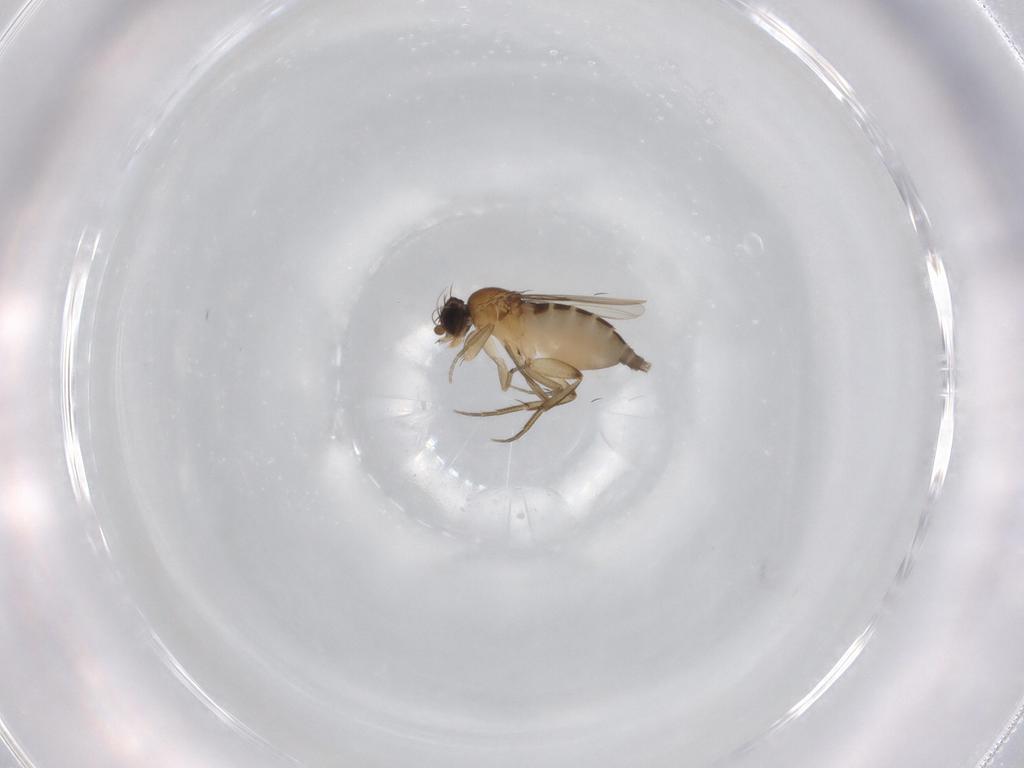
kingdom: Animalia
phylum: Arthropoda
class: Insecta
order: Diptera
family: Phoridae
